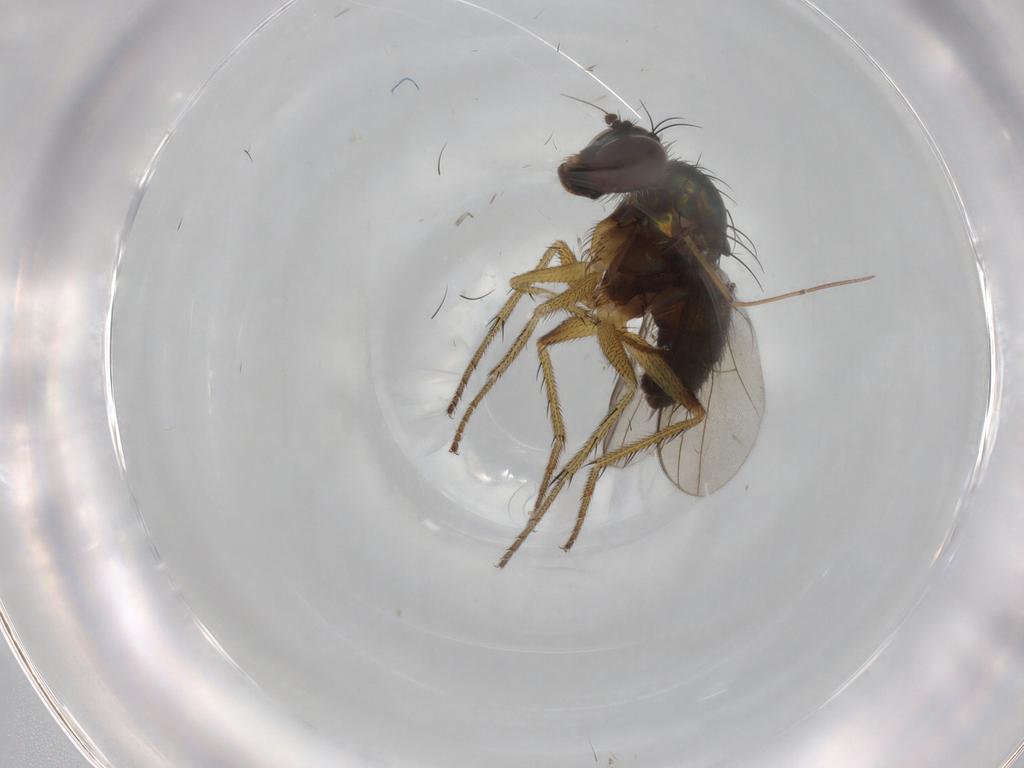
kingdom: Animalia
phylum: Arthropoda
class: Insecta
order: Diptera
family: Dolichopodidae
